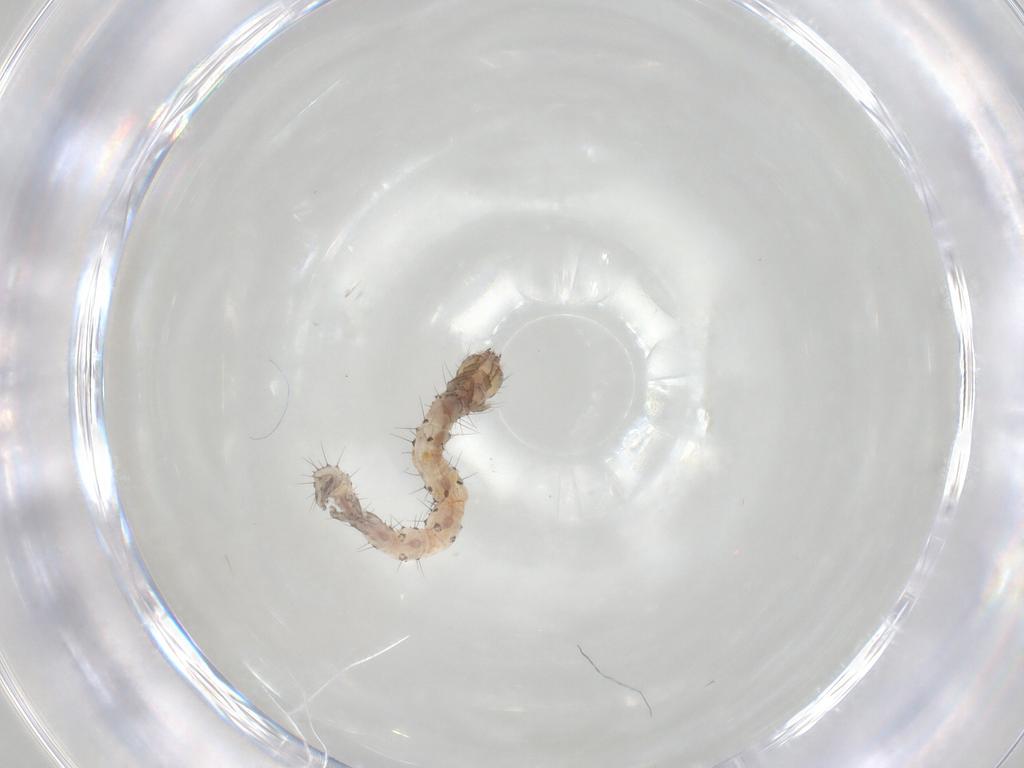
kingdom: Animalia
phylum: Arthropoda
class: Insecta
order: Lepidoptera
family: Erebidae
